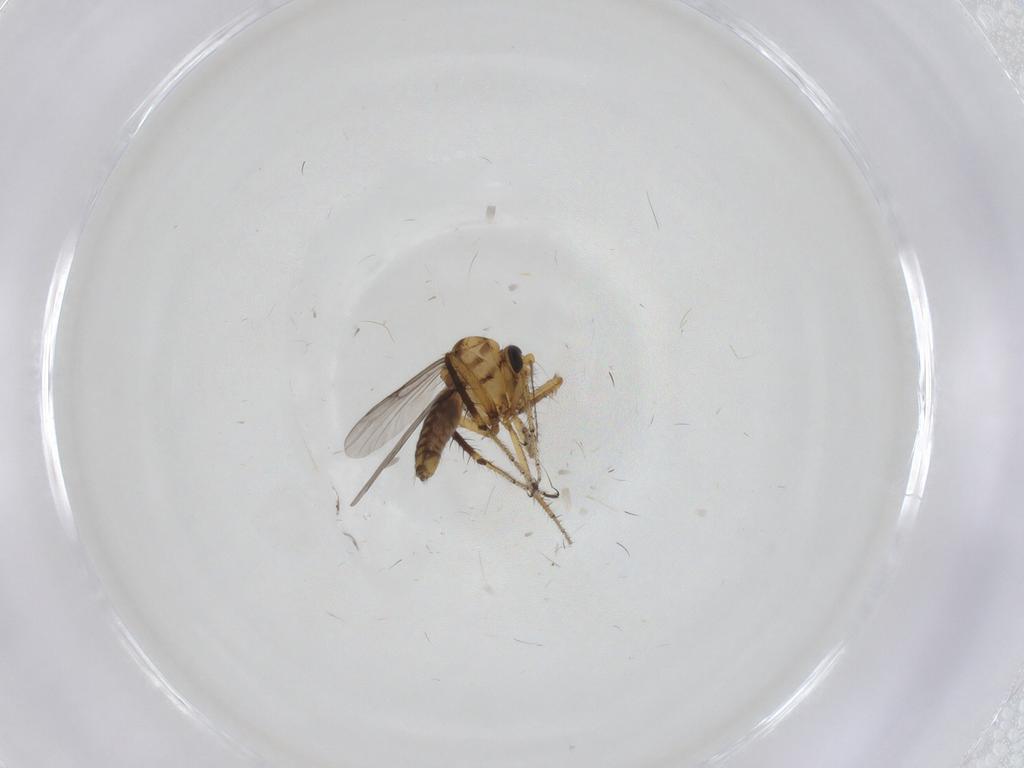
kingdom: Animalia
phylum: Arthropoda
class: Insecta
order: Diptera
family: Ceratopogonidae
